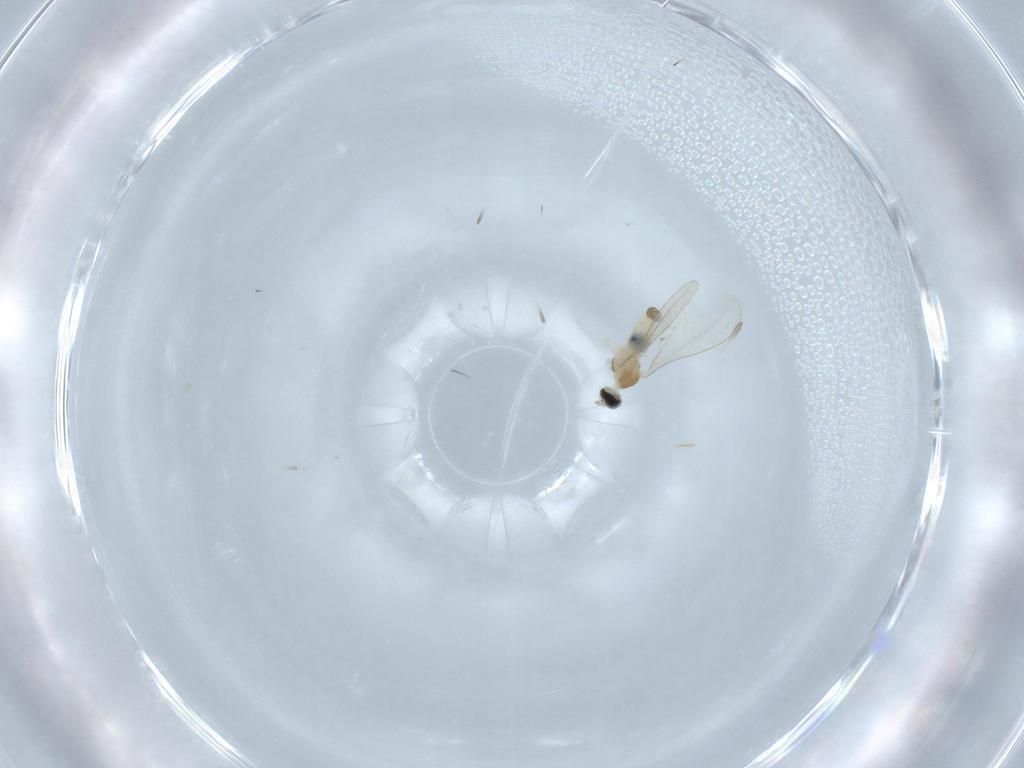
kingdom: Animalia
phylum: Arthropoda
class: Insecta
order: Diptera
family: Cecidomyiidae
